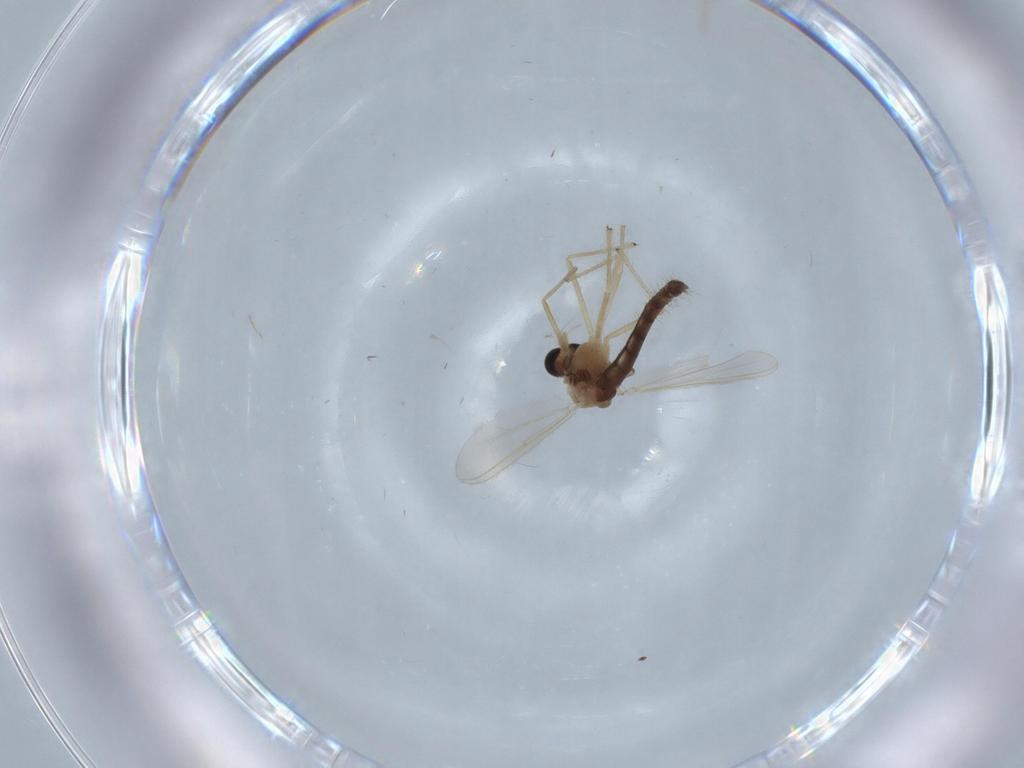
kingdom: Animalia
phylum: Arthropoda
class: Insecta
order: Diptera
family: Chironomidae
